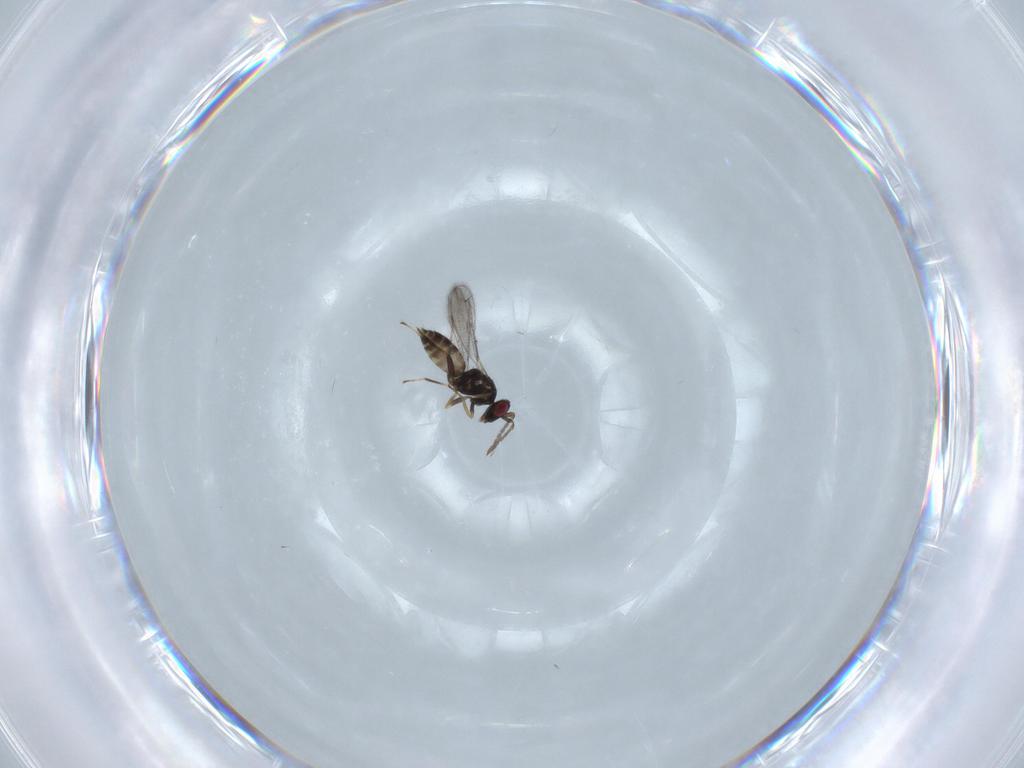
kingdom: Animalia
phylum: Arthropoda
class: Insecta
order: Hymenoptera
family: Eulophidae
